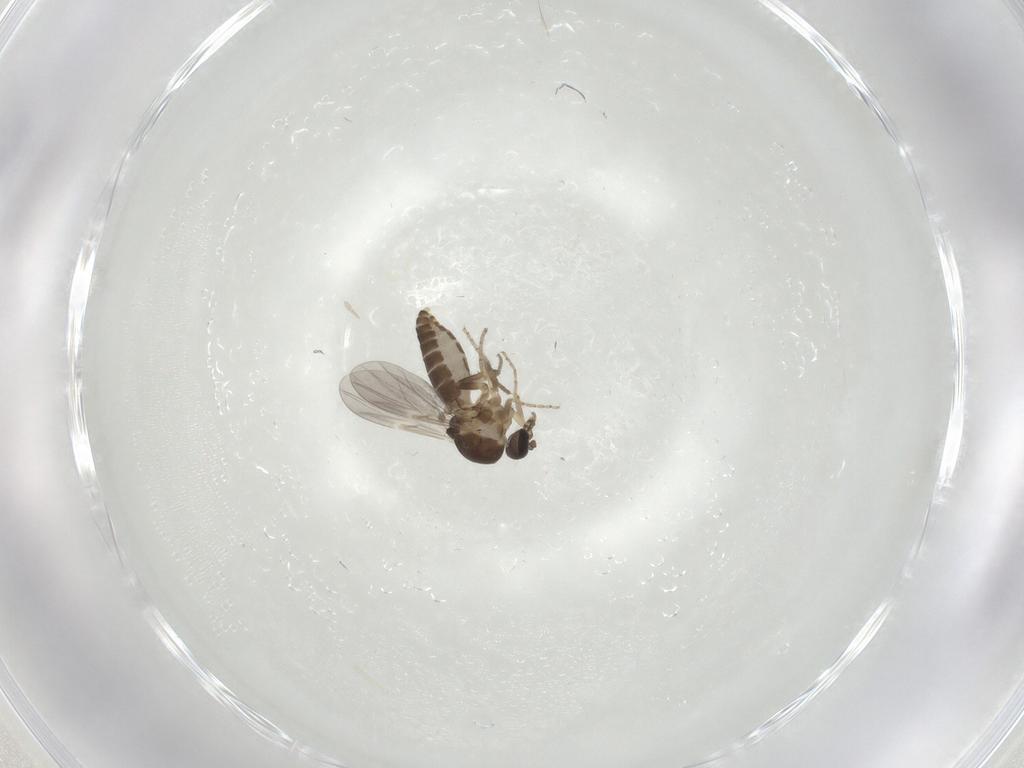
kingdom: Animalia
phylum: Arthropoda
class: Insecta
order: Diptera
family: Ceratopogonidae
